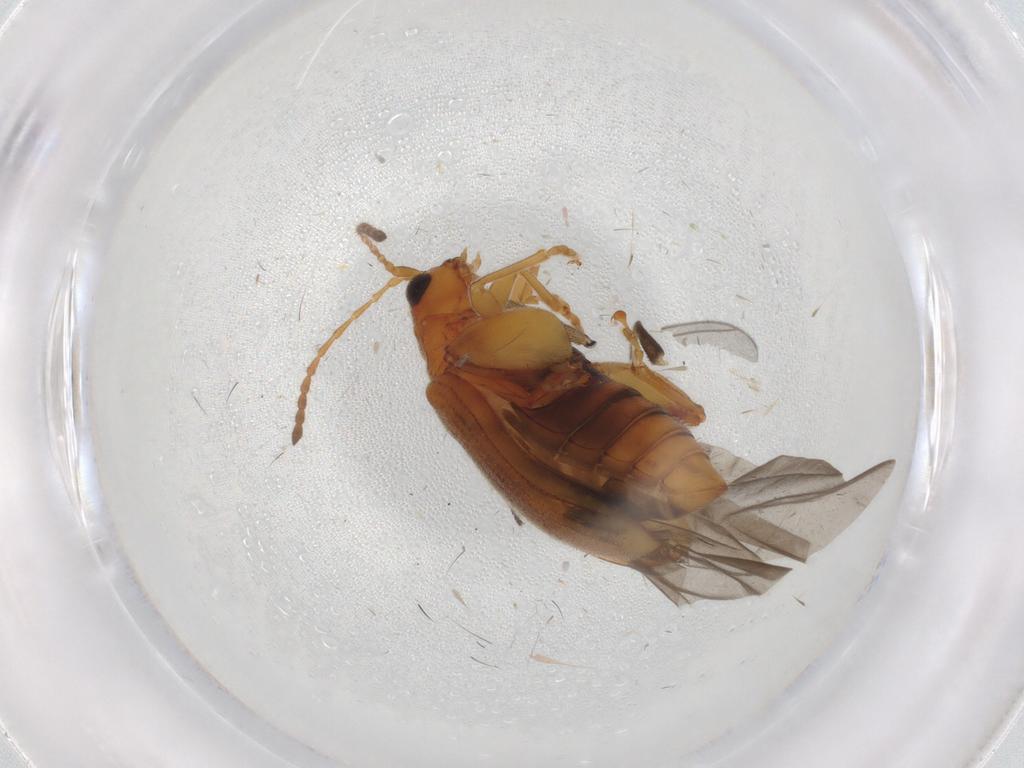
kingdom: Animalia
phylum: Arthropoda
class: Insecta
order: Coleoptera
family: Chrysomelidae
